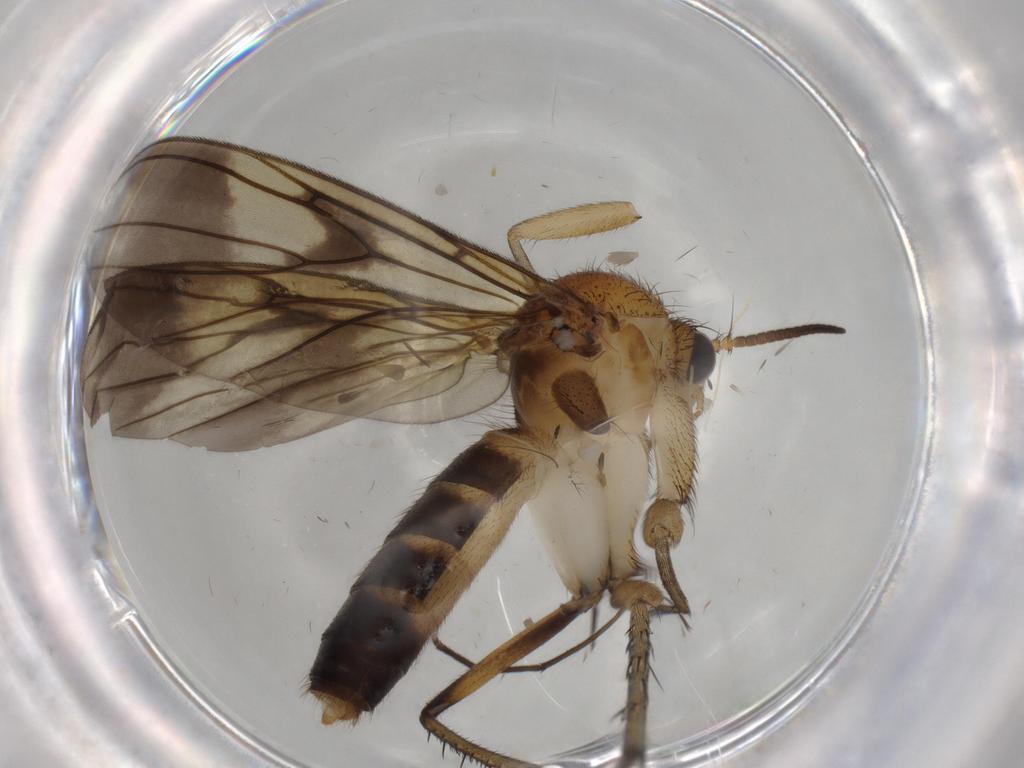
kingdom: Animalia
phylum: Arthropoda
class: Insecta
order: Diptera
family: Mycetophilidae
